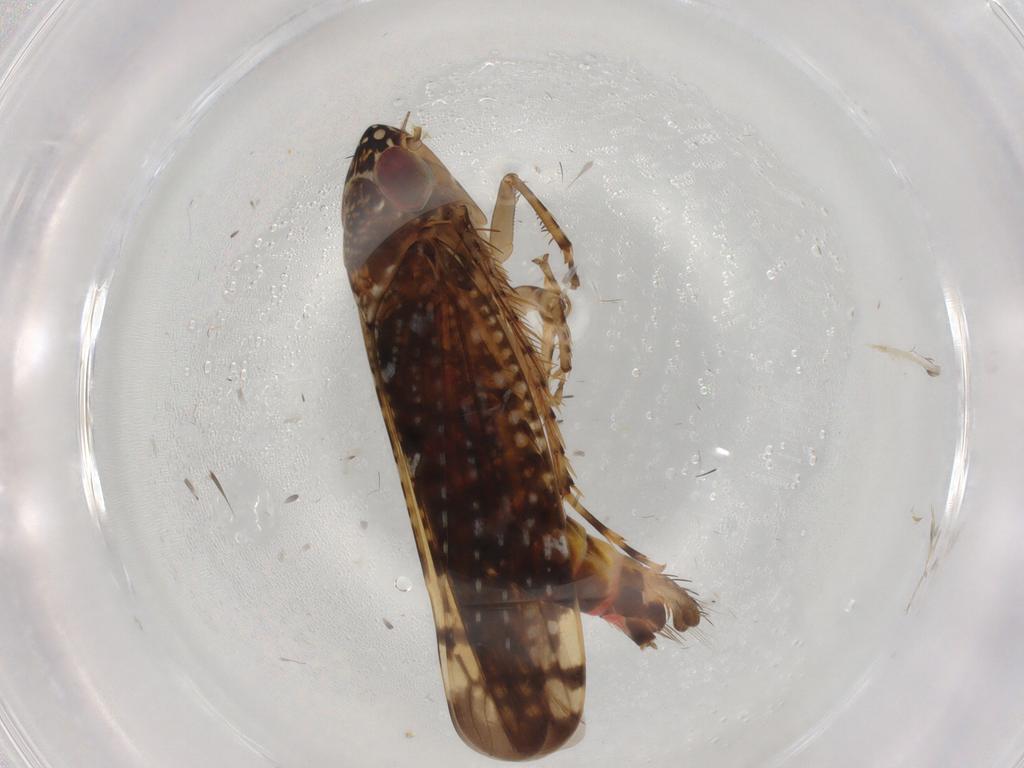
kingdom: Animalia
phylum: Arthropoda
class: Insecta
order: Hemiptera
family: Cicadellidae
